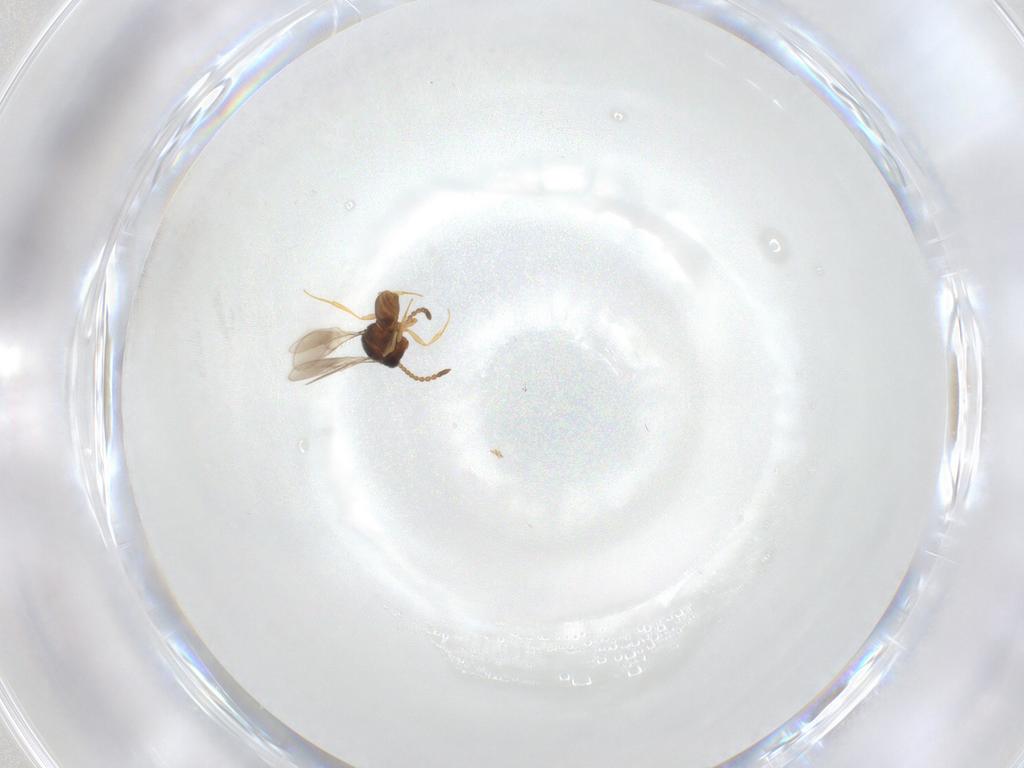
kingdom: Animalia
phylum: Arthropoda
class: Insecta
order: Hymenoptera
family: Scelionidae
